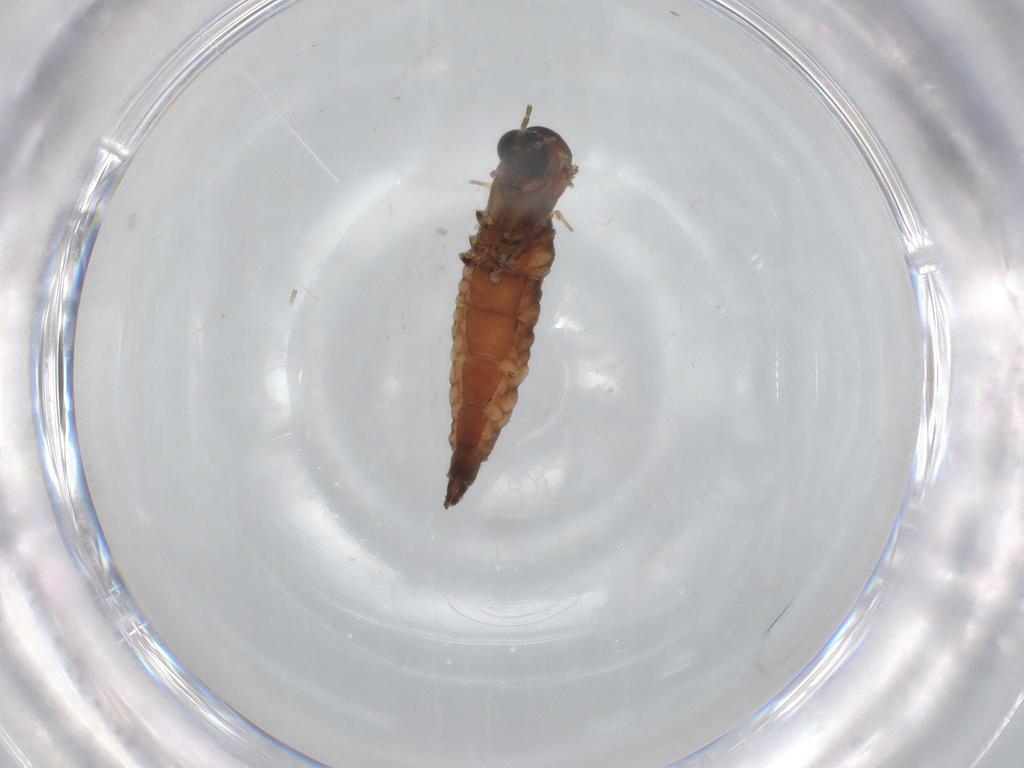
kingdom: Animalia
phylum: Arthropoda
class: Insecta
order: Diptera
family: Sciaridae
